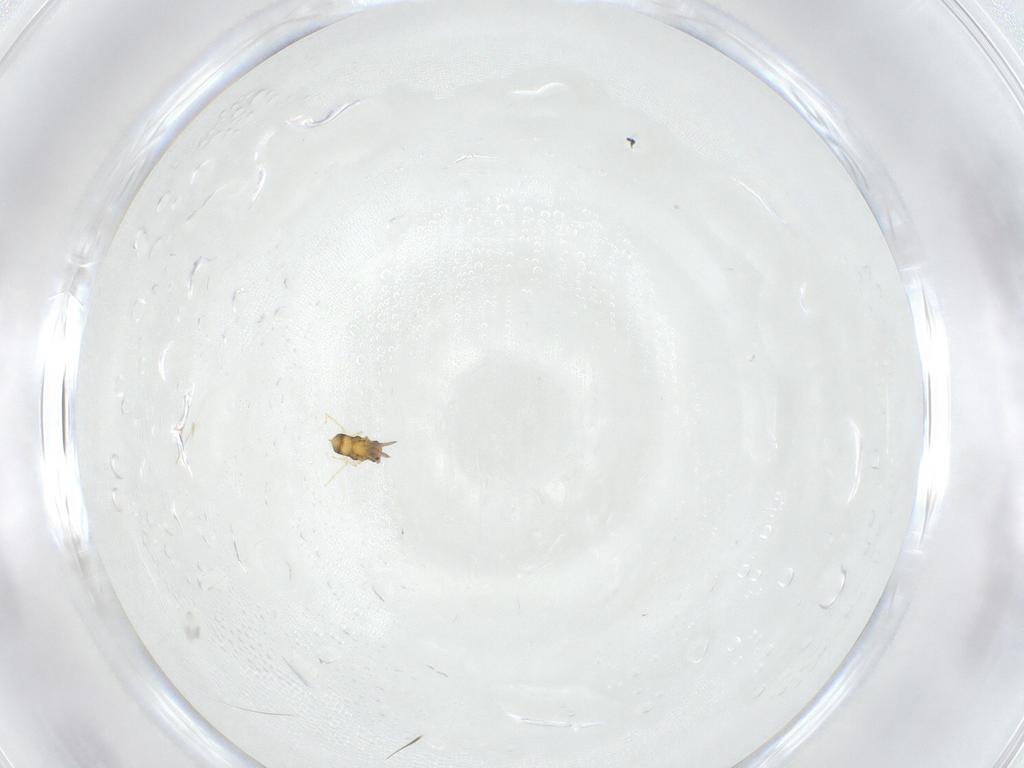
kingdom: Animalia
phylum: Arthropoda
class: Insecta
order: Hymenoptera
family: Aphelinidae
